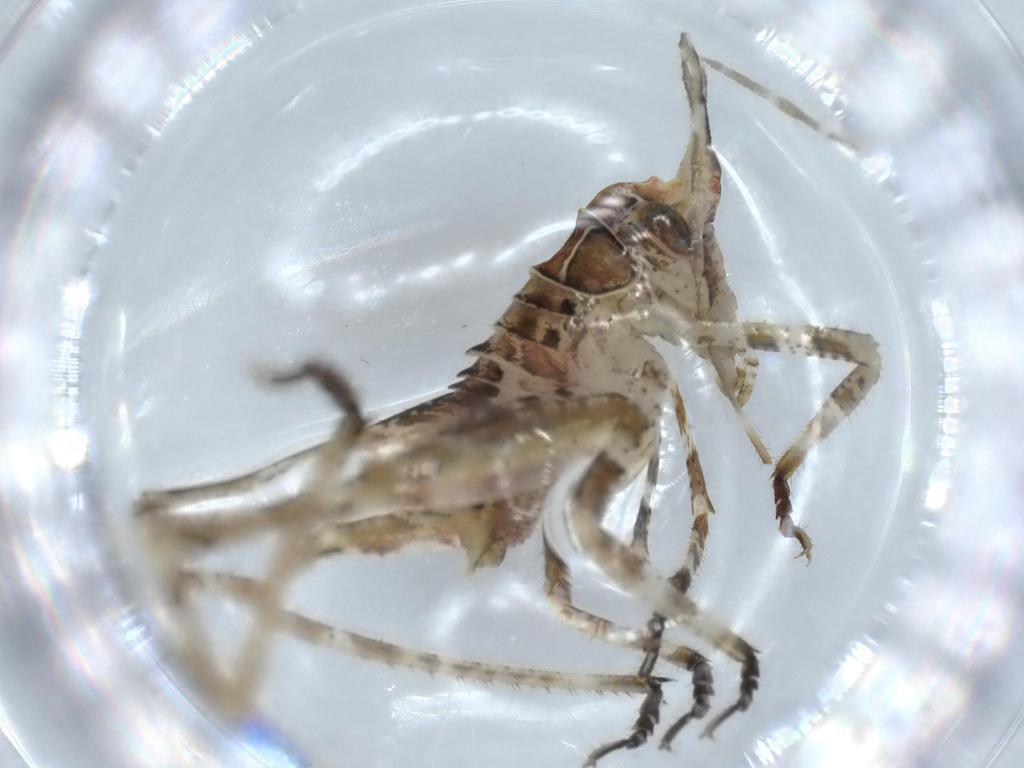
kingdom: Animalia
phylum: Arthropoda
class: Insecta
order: Orthoptera
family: Tettigoniidae
